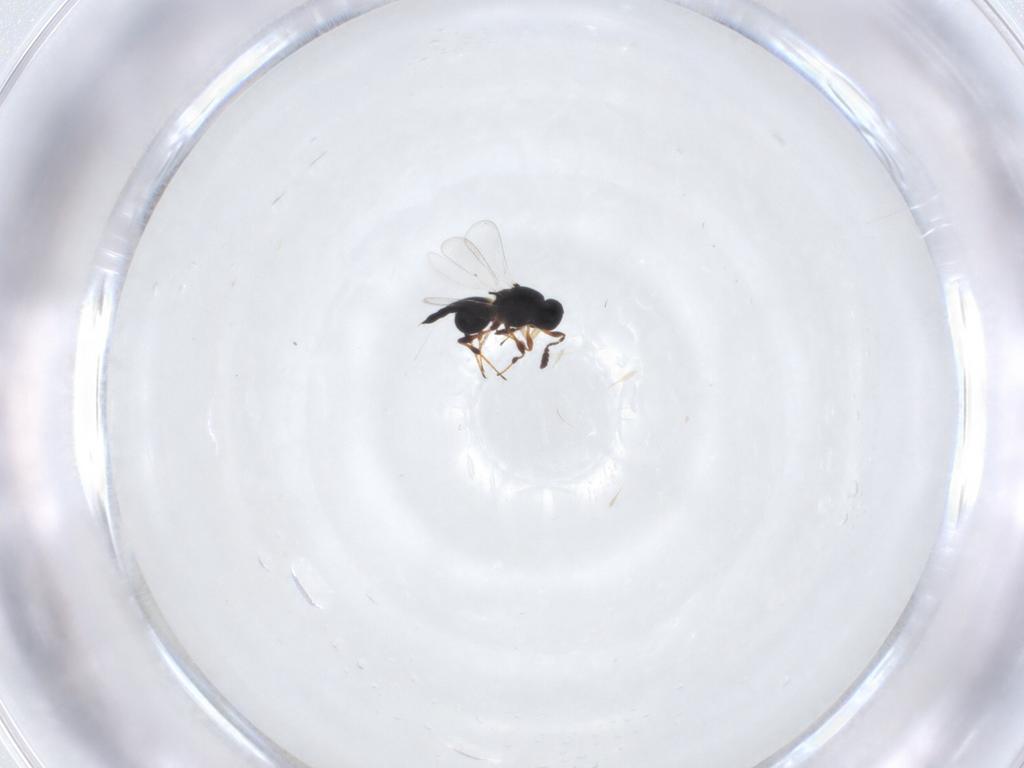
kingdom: Animalia
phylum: Arthropoda
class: Insecta
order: Hymenoptera
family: Platygastridae
